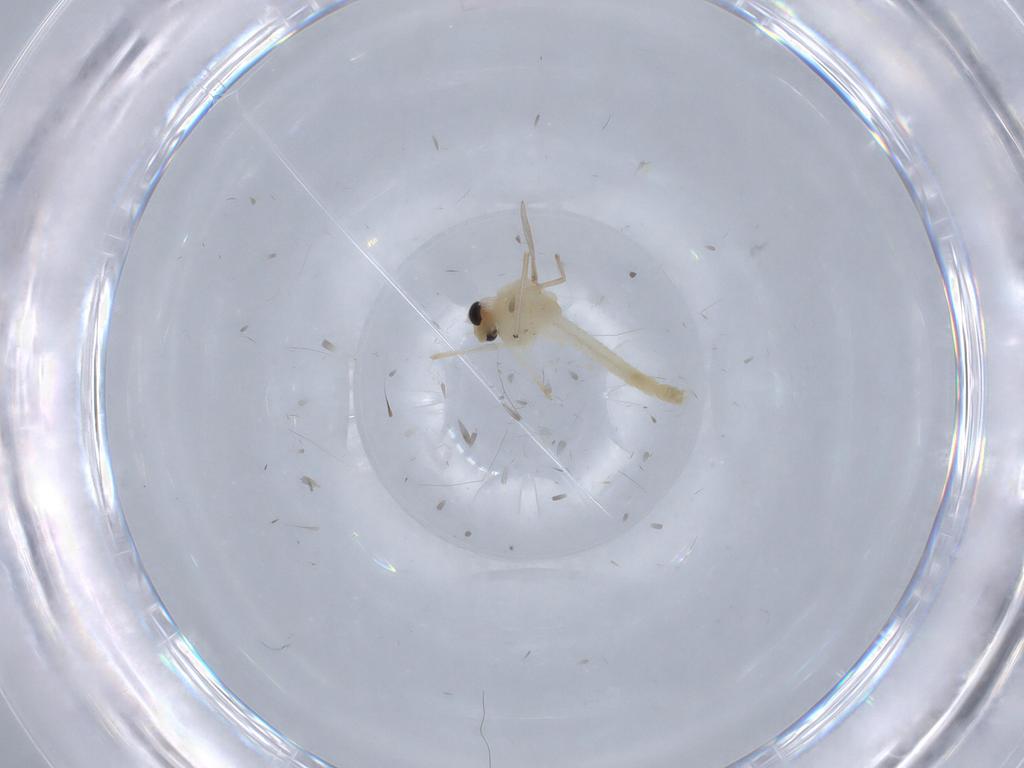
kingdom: Animalia
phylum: Arthropoda
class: Insecta
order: Diptera
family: Chironomidae
